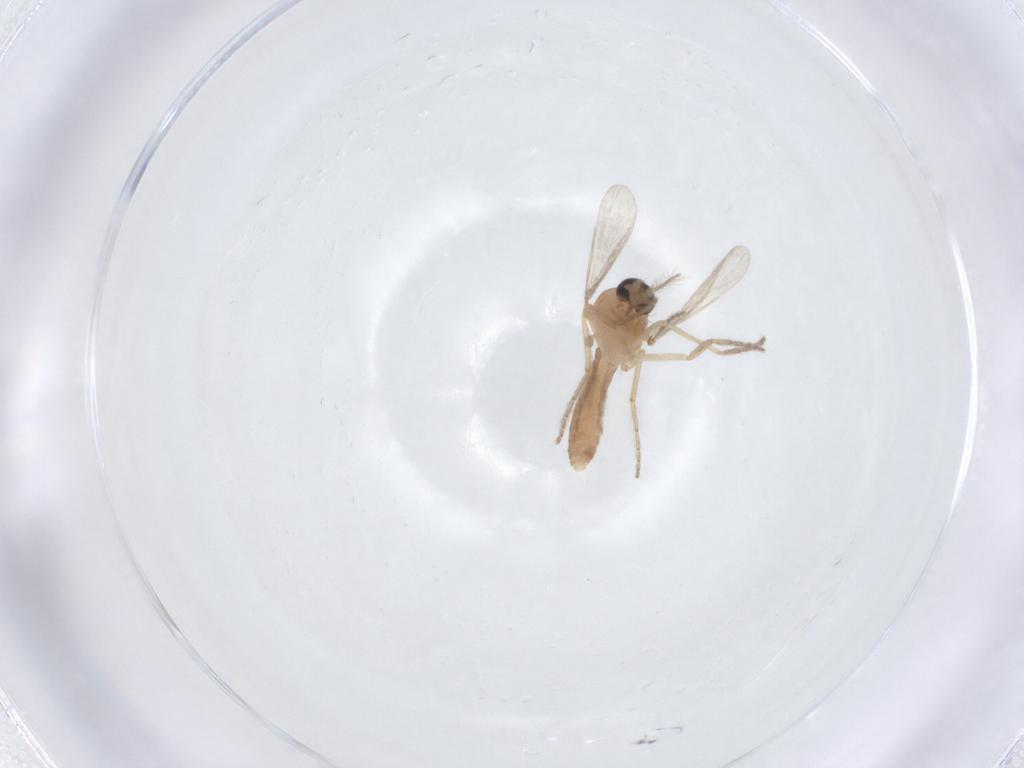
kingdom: Animalia
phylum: Arthropoda
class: Insecta
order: Diptera
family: Ceratopogonidae
